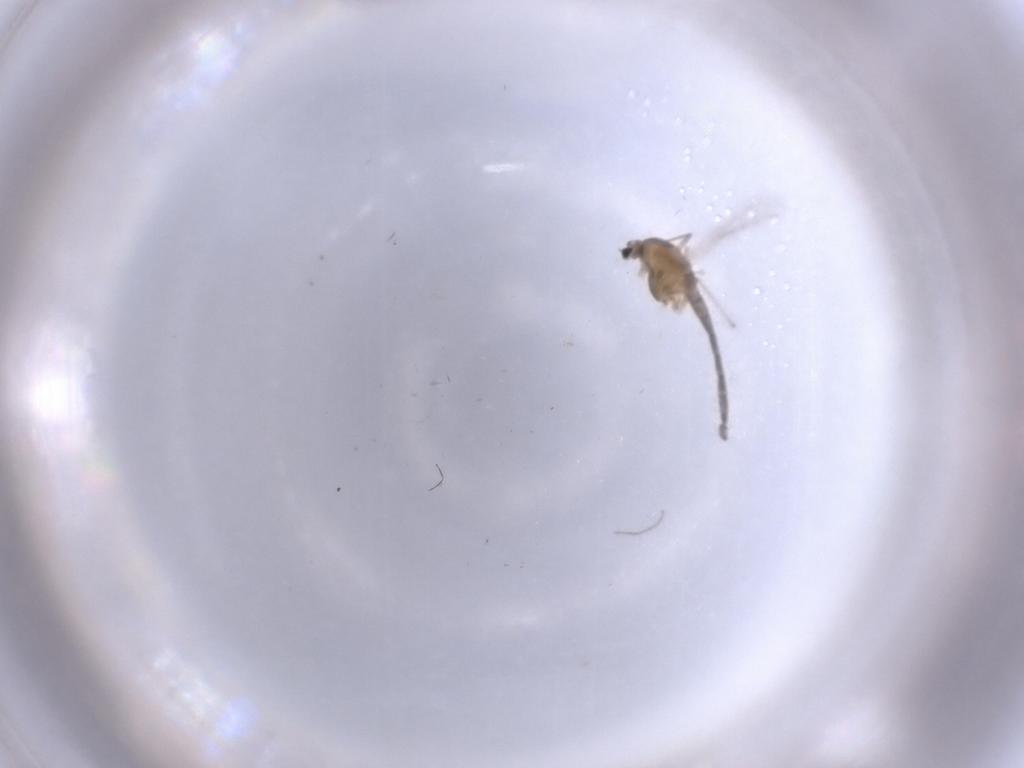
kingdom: Animalia
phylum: Arthropoda
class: Insecta
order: Diptera
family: Chironomidae
